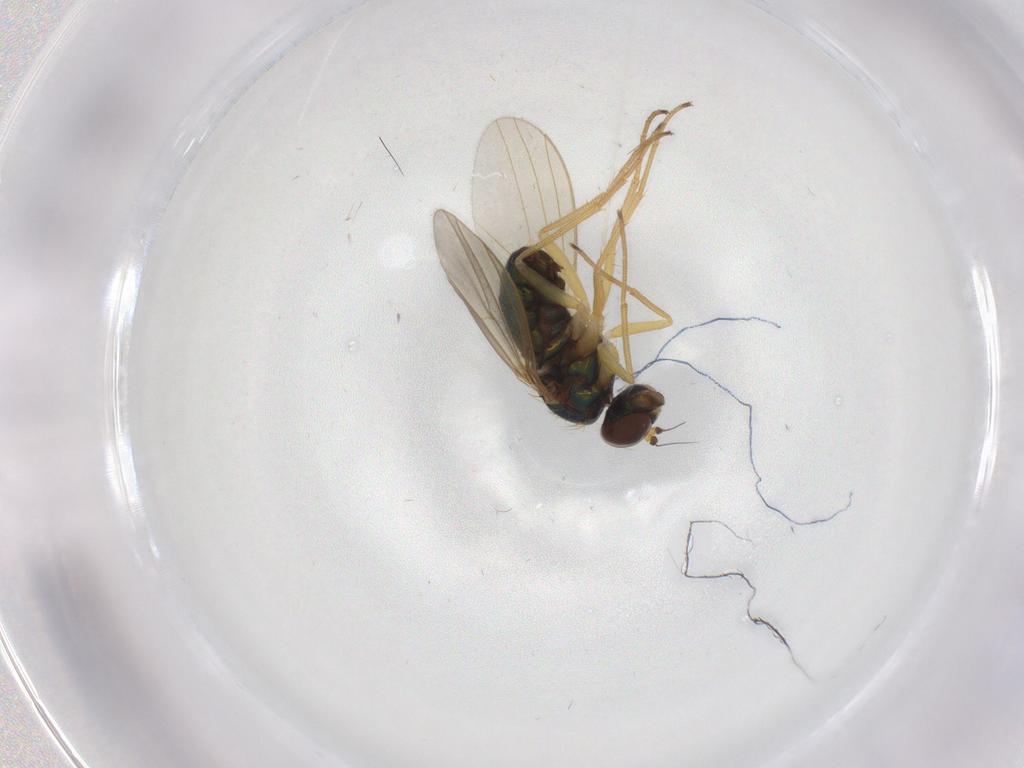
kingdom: Animalia
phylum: Arthropoda
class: Insecta
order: Diptera
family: Dolichopodidae
